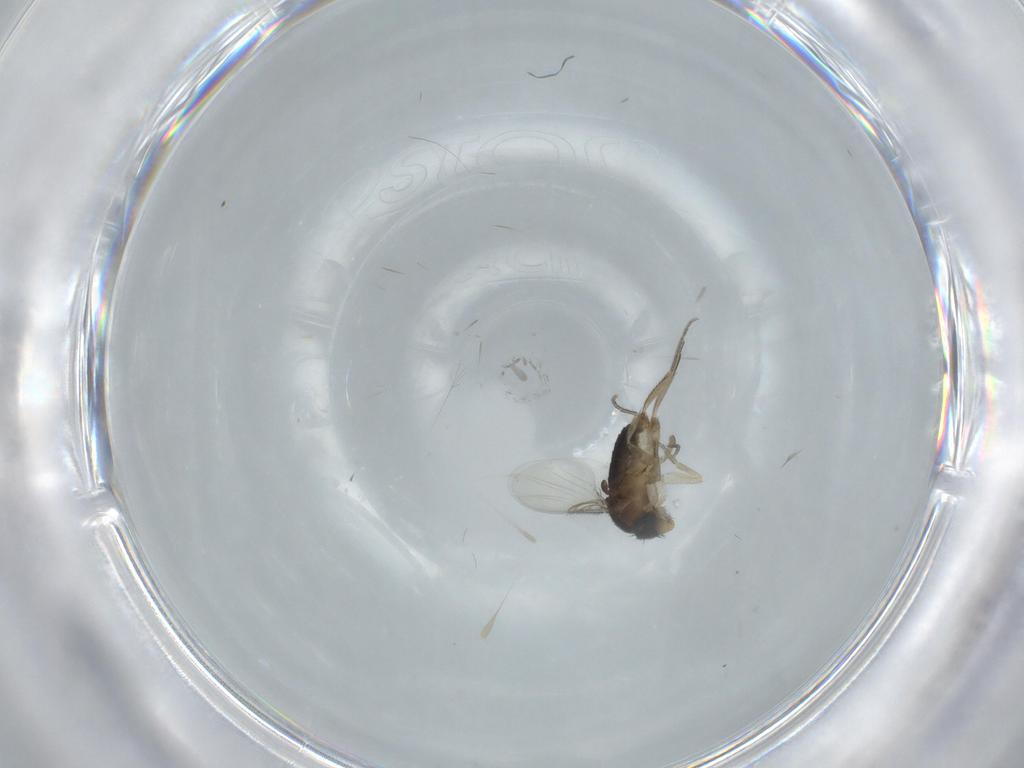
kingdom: Animalia
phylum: Arthropoda
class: Insecta
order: Diptera
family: Phoridae
